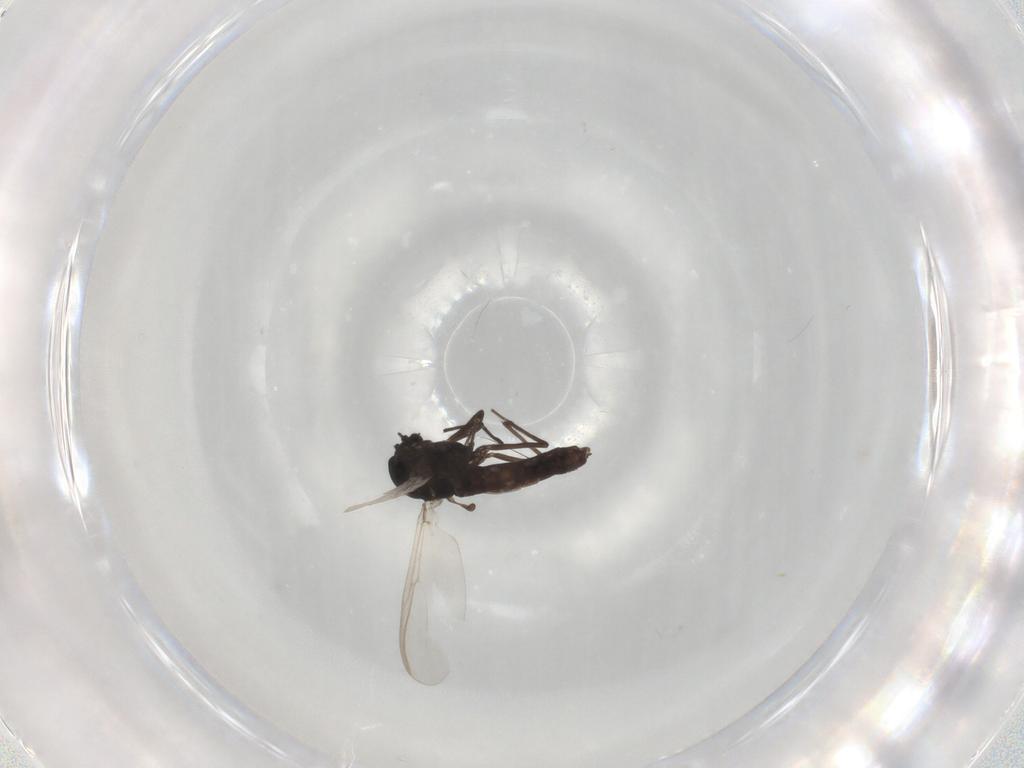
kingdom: Animalia
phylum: Arthropoda
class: Insecta
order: Diptera
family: Chironomidae
